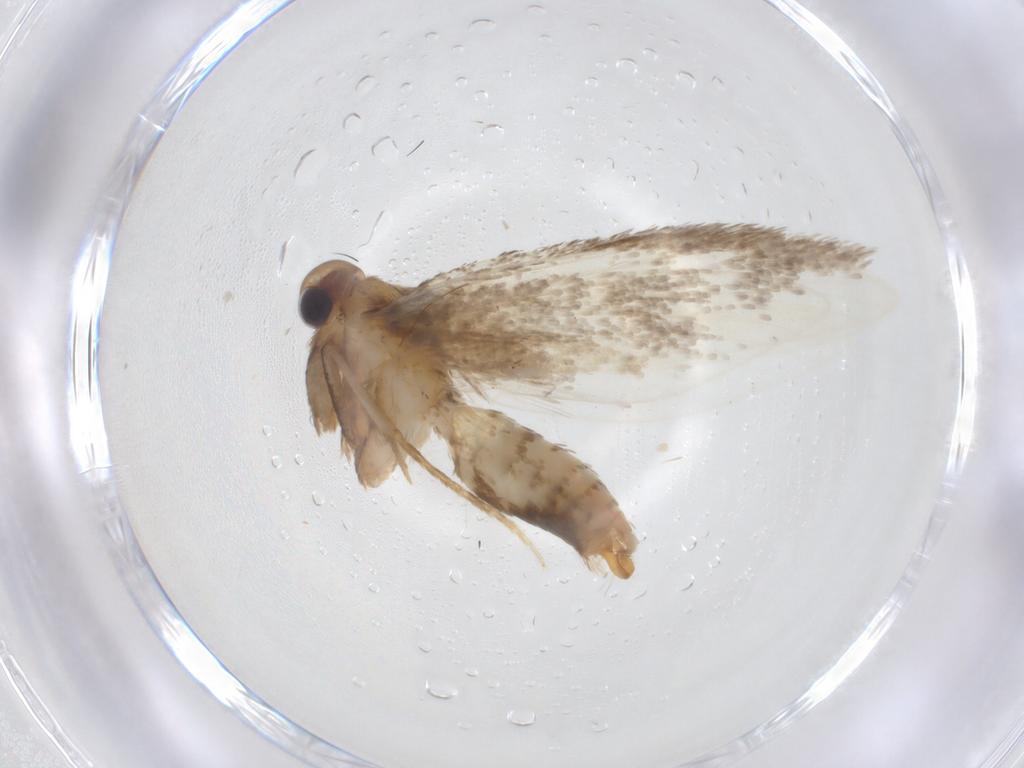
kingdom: Animalia
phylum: Arthropoda
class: Insecta
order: Lepidoptera
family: Tineidae
